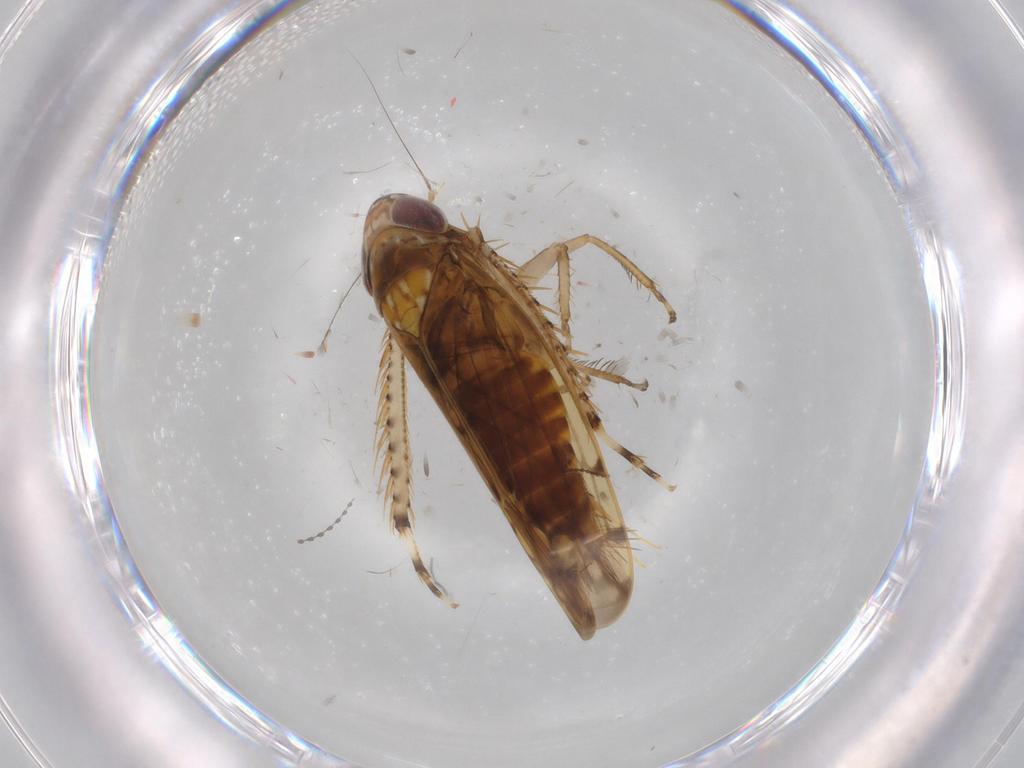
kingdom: Animalia
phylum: Arthropoda
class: Insecta
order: Hemiptera
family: Cicadellidae
